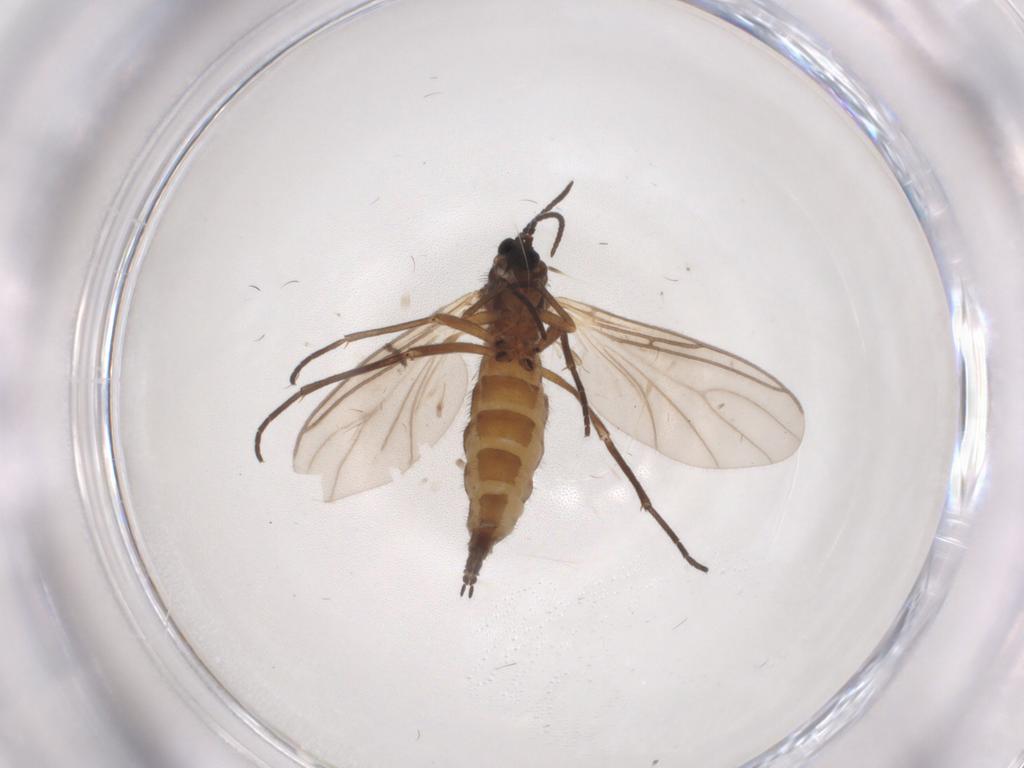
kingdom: Animalia
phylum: Arthropoda
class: Insecta
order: Diptera
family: Sciaridae
